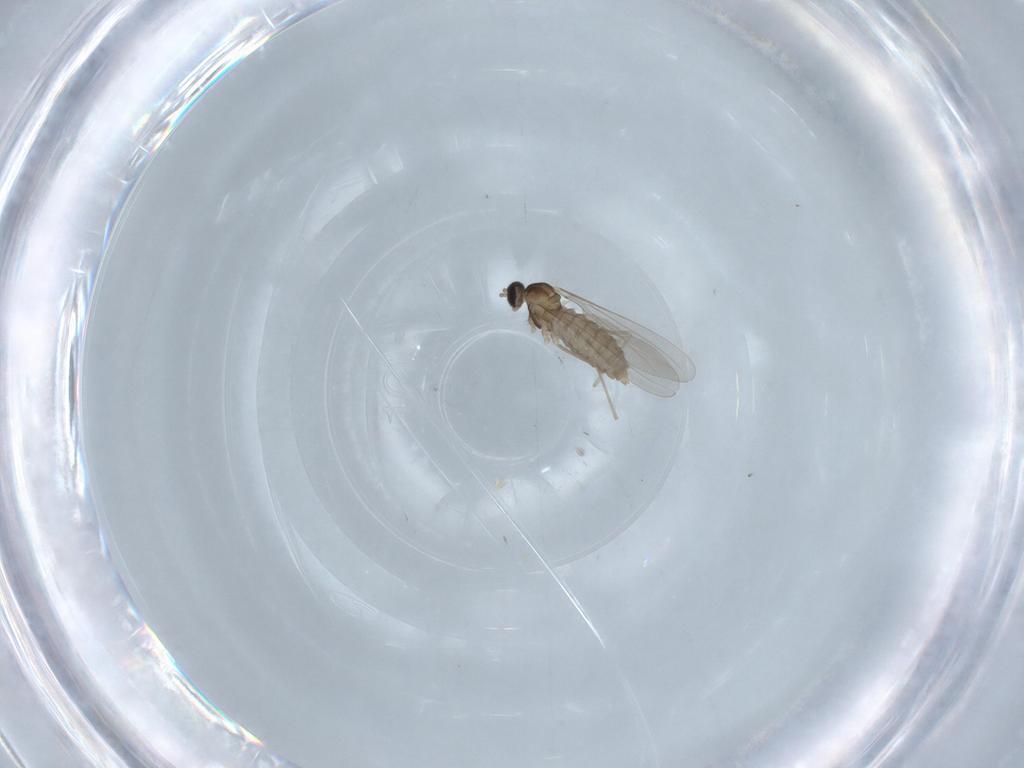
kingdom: Animalia
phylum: Arthropoda
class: Insecta
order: Diptera
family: Cecidomyiidae
